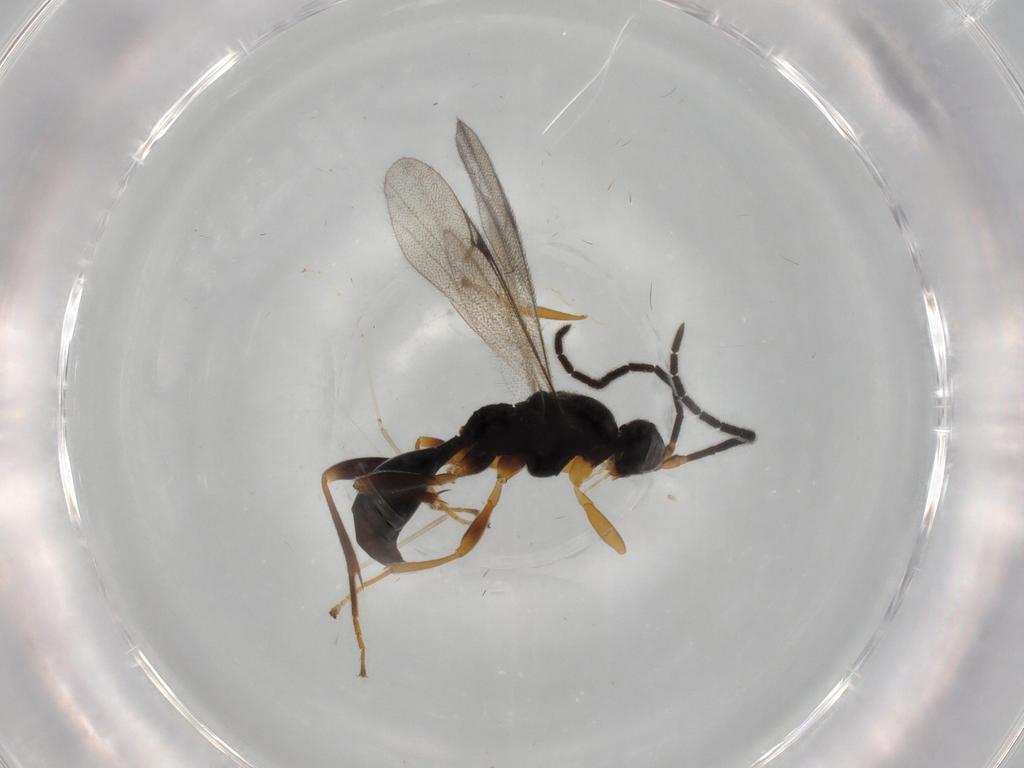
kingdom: Animalia
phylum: Arthropoda
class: Insecta
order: Hymenoptera
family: Proctotrupidae
